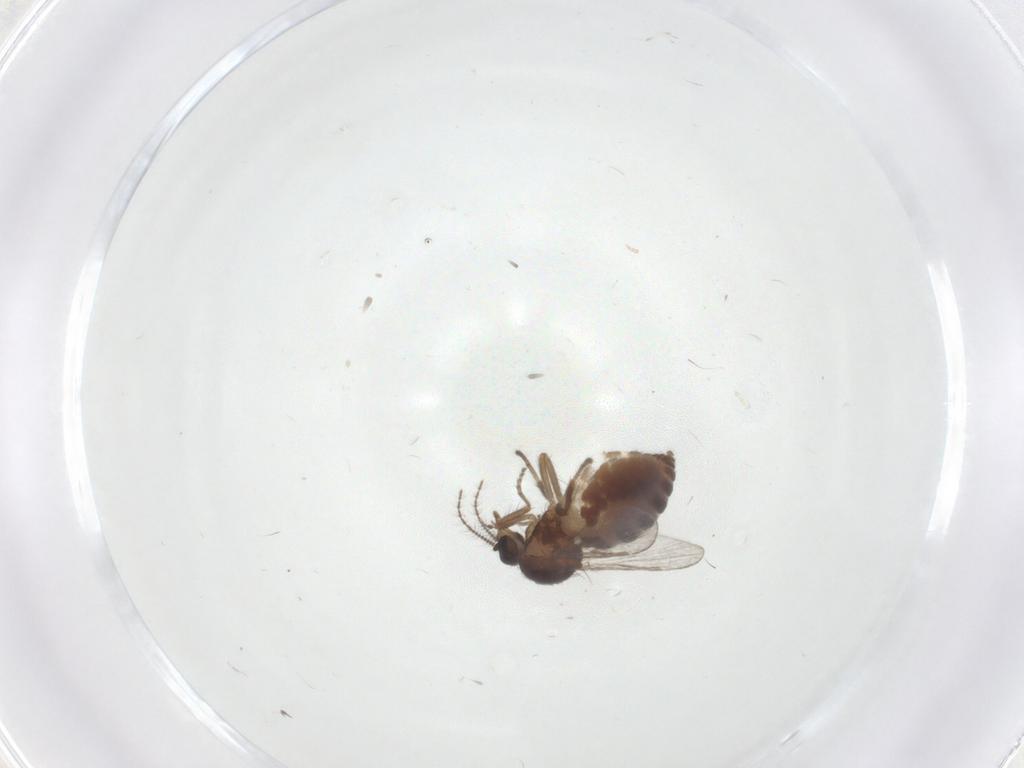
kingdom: Animalia
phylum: Arthropoda
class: Insecta
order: Diptera
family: Ceratopogonidae
